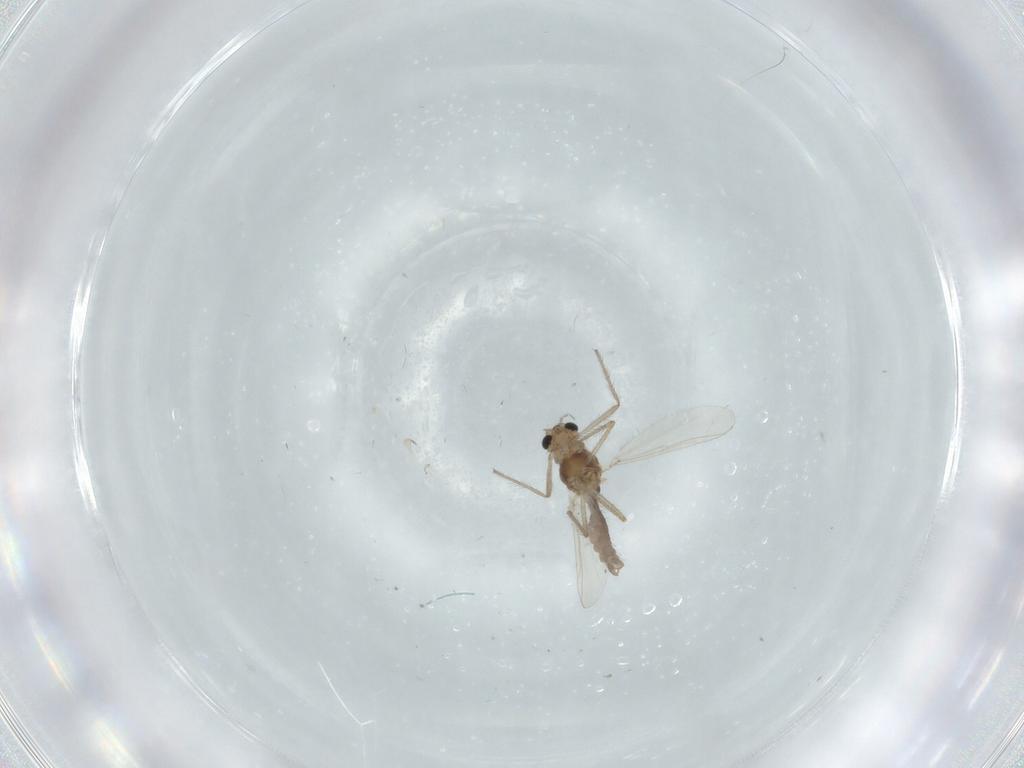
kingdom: Animalia
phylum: Arthropoda
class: Insecta
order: Diptera
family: Chironomidae
